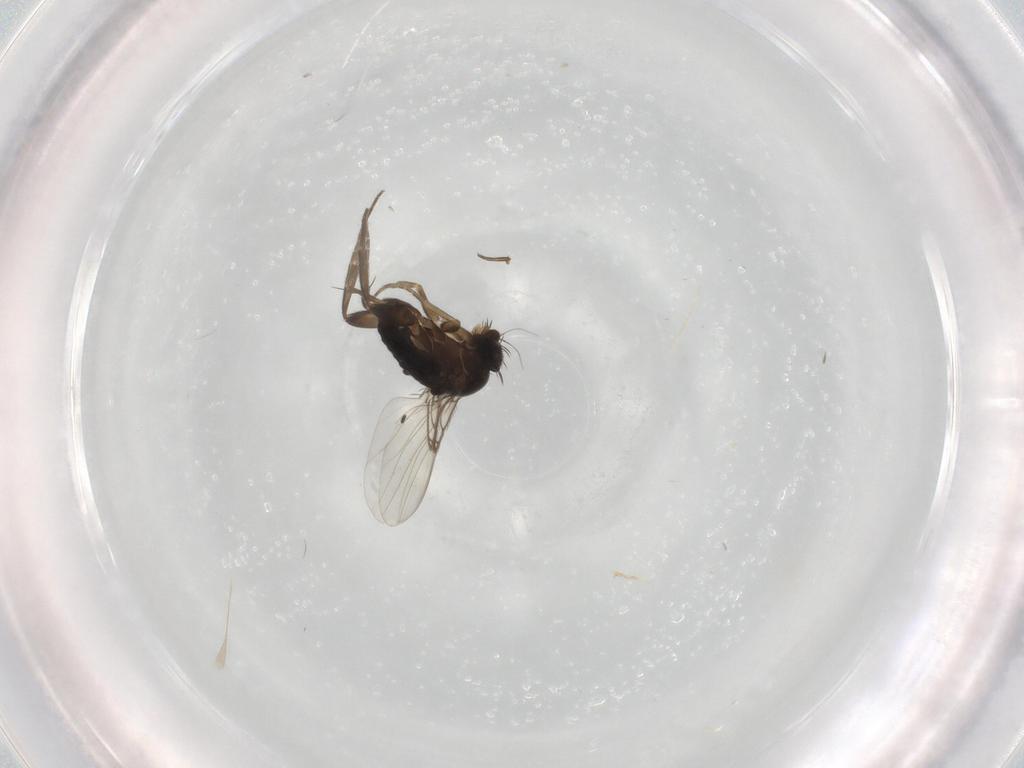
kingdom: Animalia
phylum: Arthropoda
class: Insecta
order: Diptera
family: Phoridae
